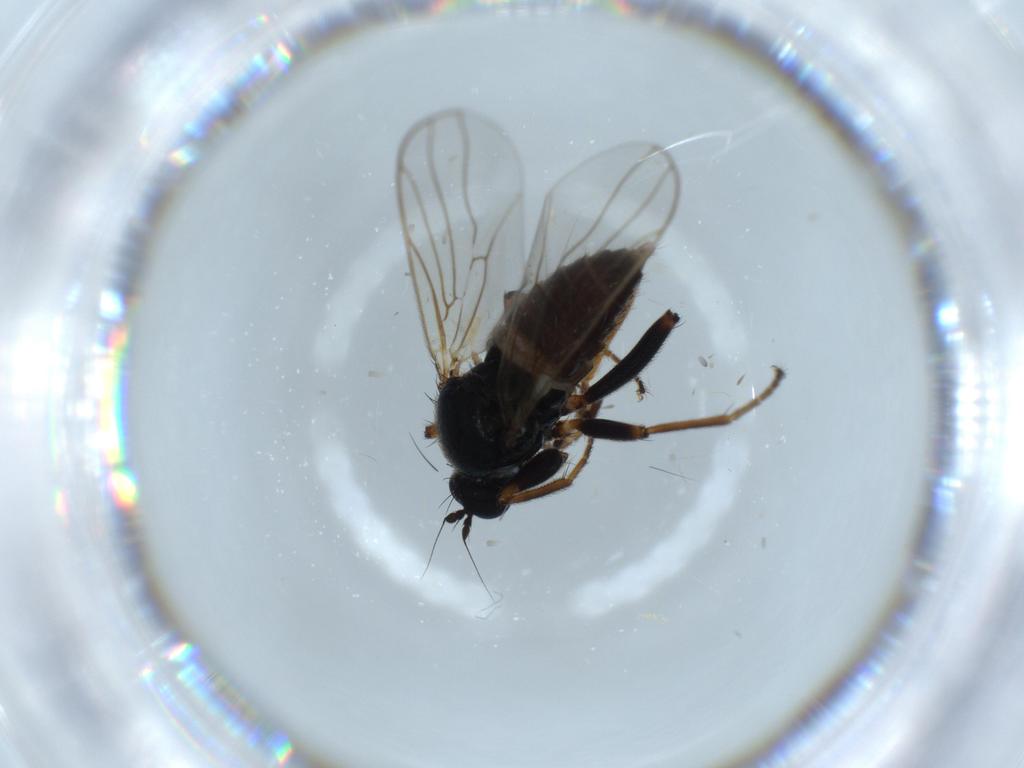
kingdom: Animalia
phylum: Arthropoda
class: Insecta
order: Diptera
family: Hybotidae
